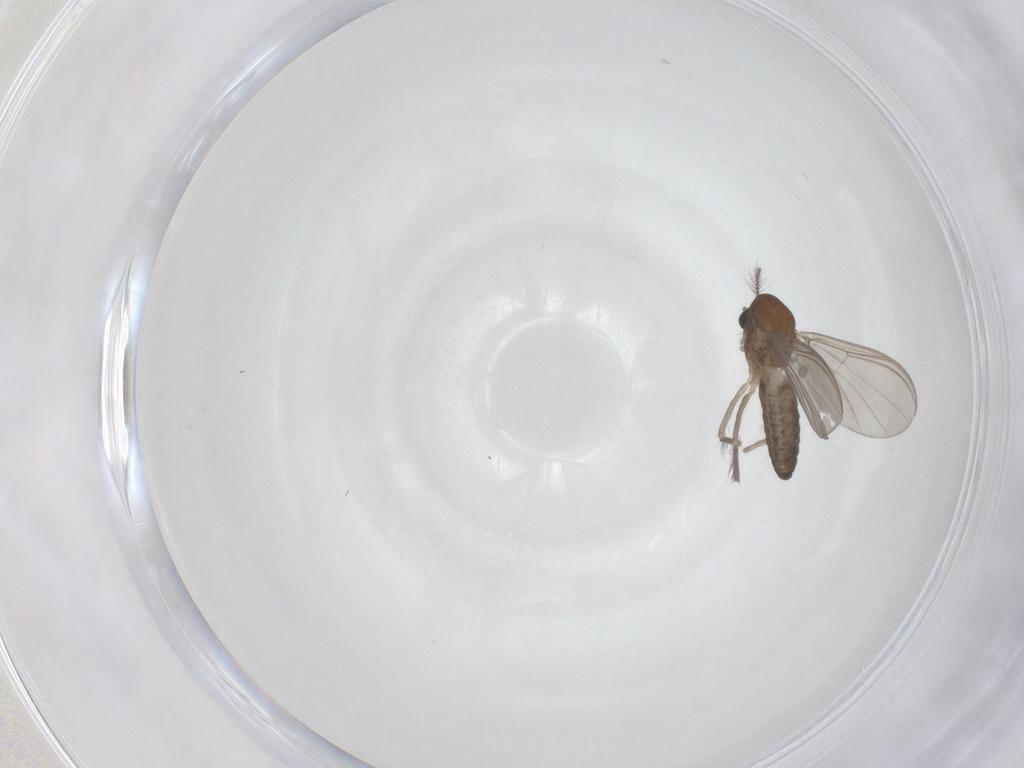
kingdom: Animalia
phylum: Arthropoda
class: Insecta
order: Diptera
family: Chironomidae
